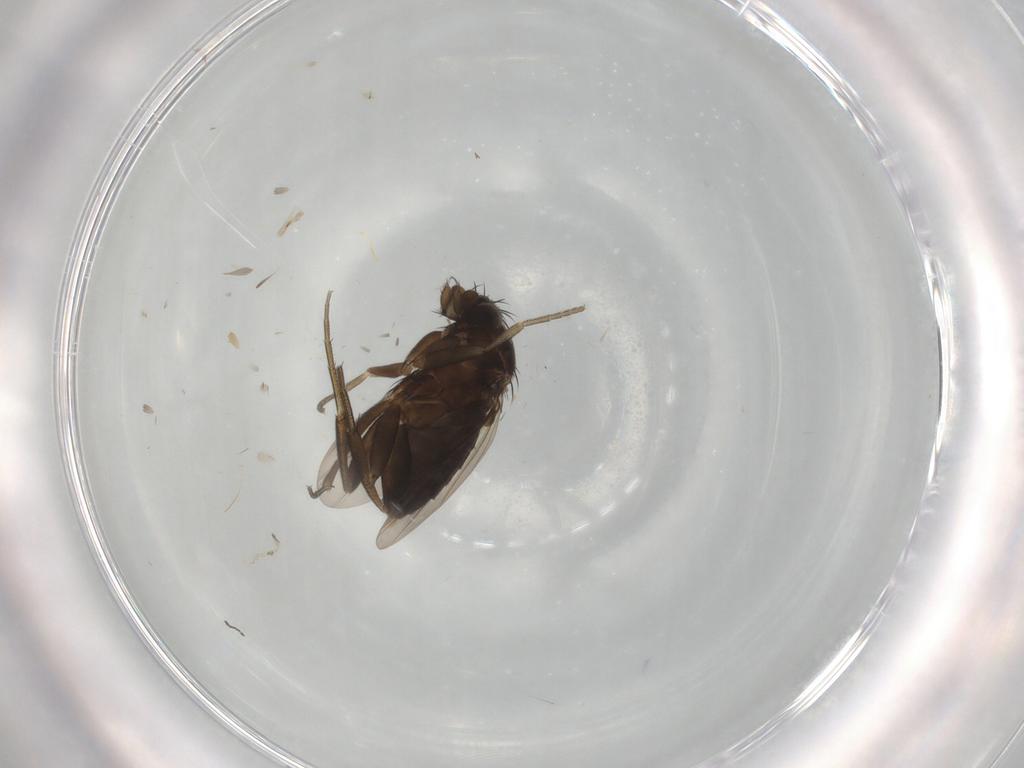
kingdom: Animalia
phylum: Arthropoda
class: Insecta
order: Diptera
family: Phoridae
